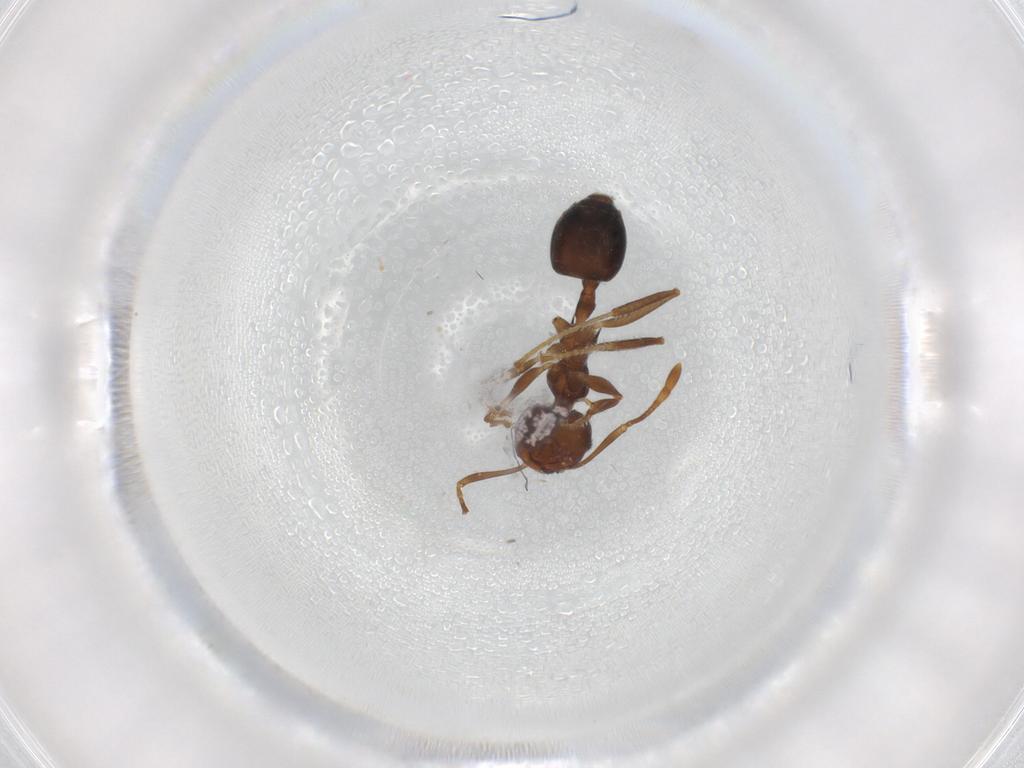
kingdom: Animalia
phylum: Arthropoda
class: Insecta
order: Hymenoptera
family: Formicidae
